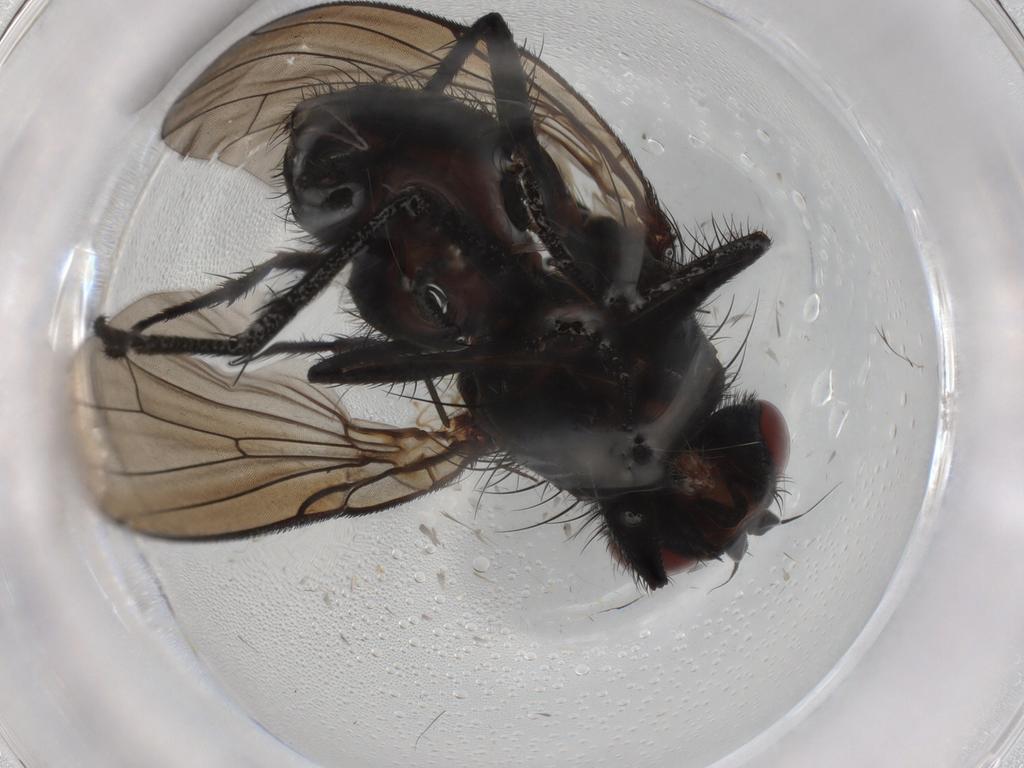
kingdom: Animalia
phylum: Arthropoda
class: Insecta
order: Diptera
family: Anthomyiidae
